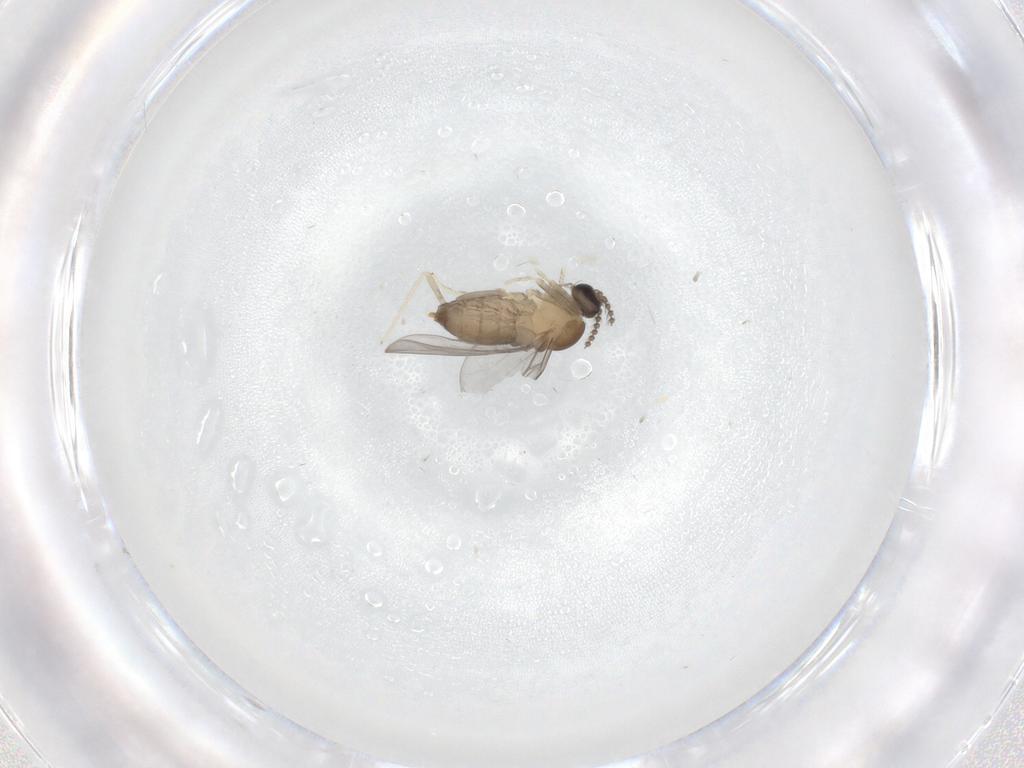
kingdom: Animalia
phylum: Arthropoda
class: Insecta
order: Diptera
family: Cecidomyiidae
